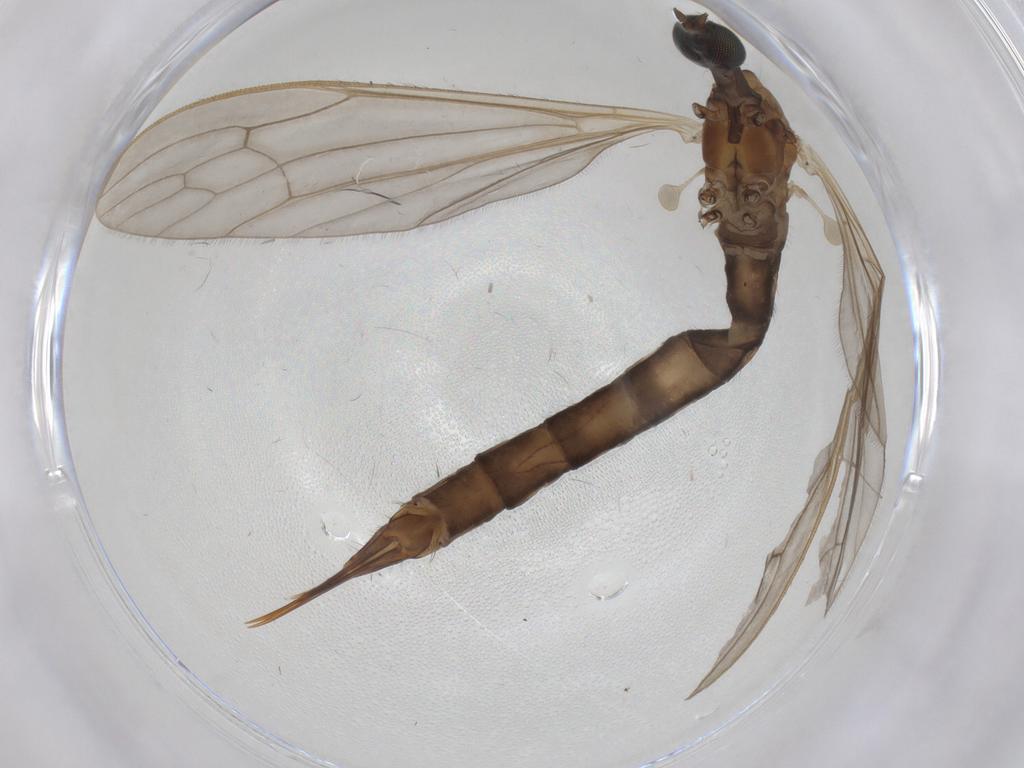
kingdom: Animalia
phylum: Arthropoda
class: Insecta
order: Diptera
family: Limoniidae
